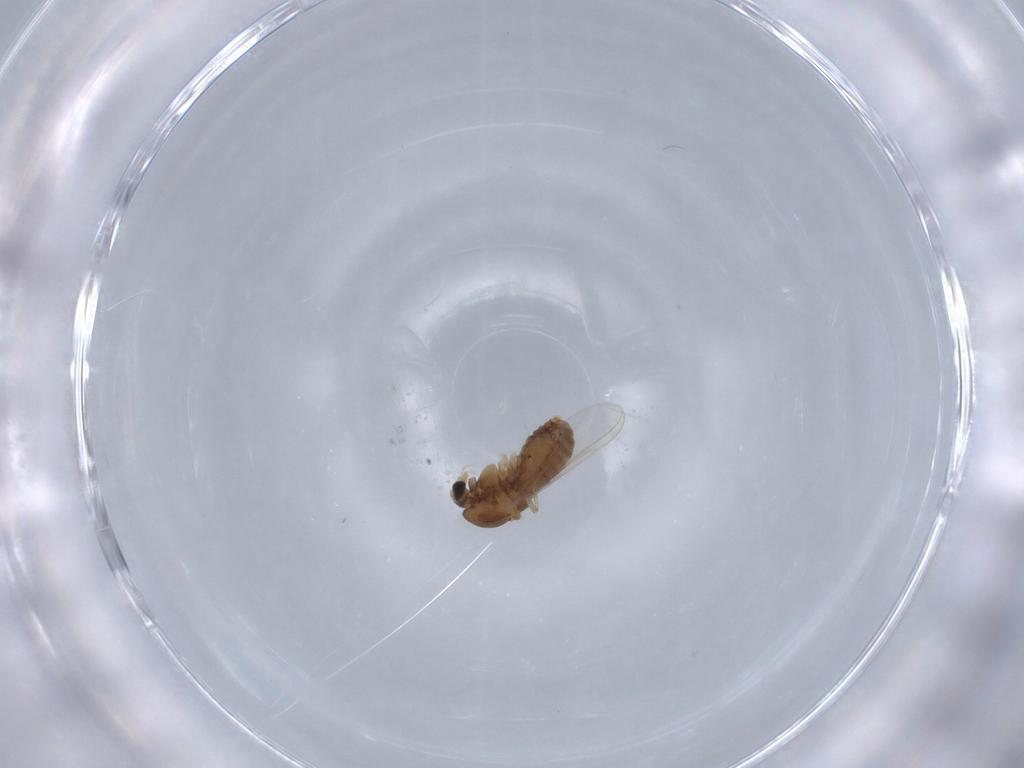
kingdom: Animalia
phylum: Arthropoda
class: Insecta
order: Diptera
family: Chironomidae
